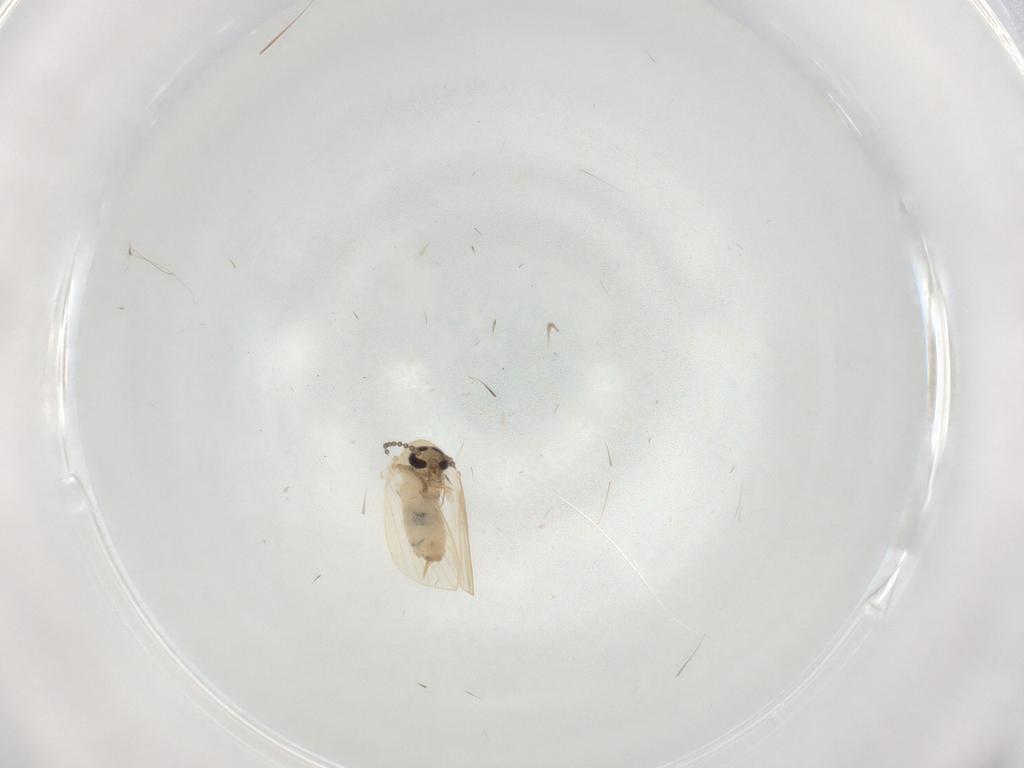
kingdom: Animalia
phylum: Arthropoda
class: Insecta
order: Diptera
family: Psychodidae
